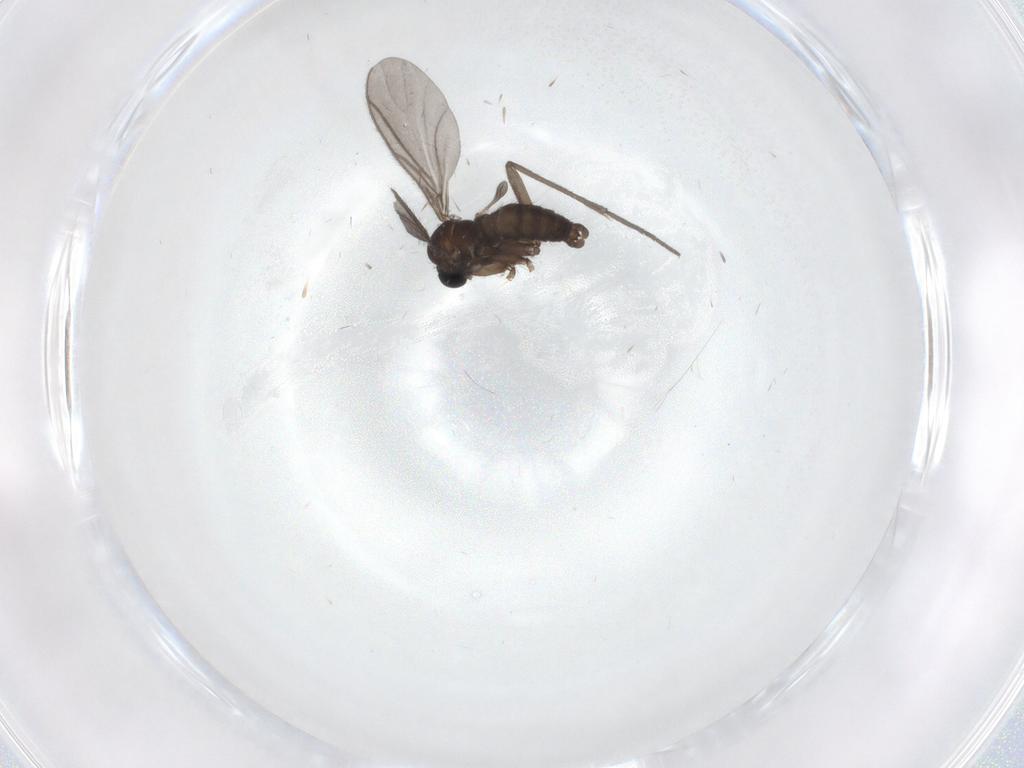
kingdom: Animalia
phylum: Arthropoda
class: Insecta
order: Diptera
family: Sciaridae
